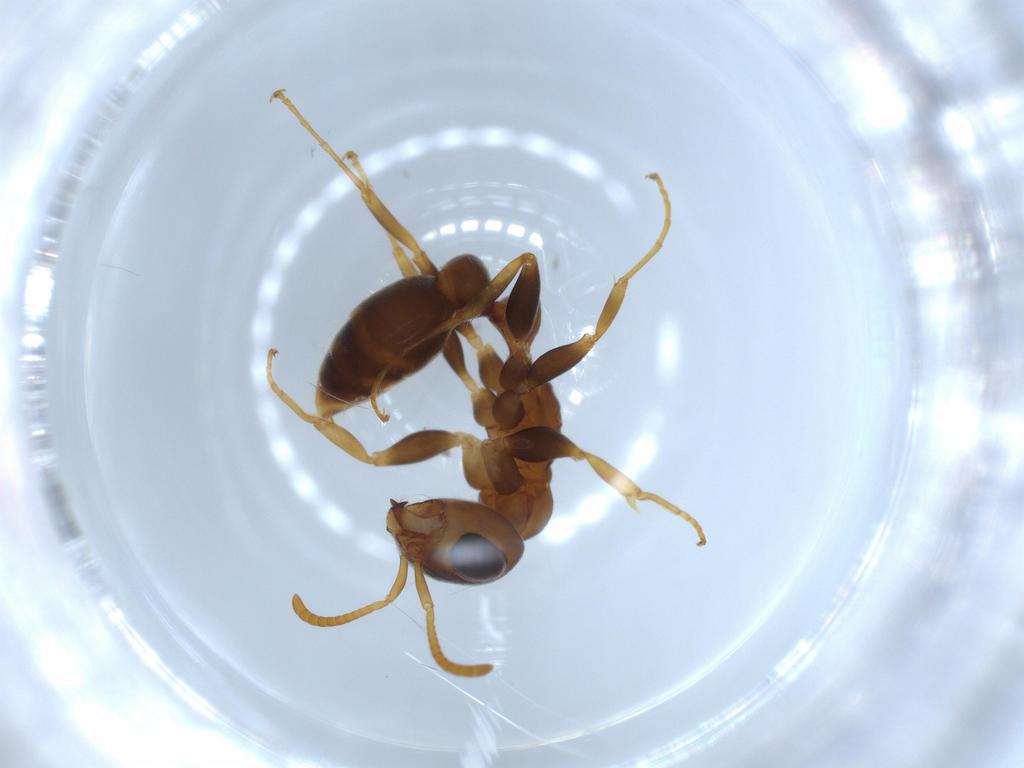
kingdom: Animalia
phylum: Arthropoda
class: Insecta
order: Hymenoptera
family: Formicidae
